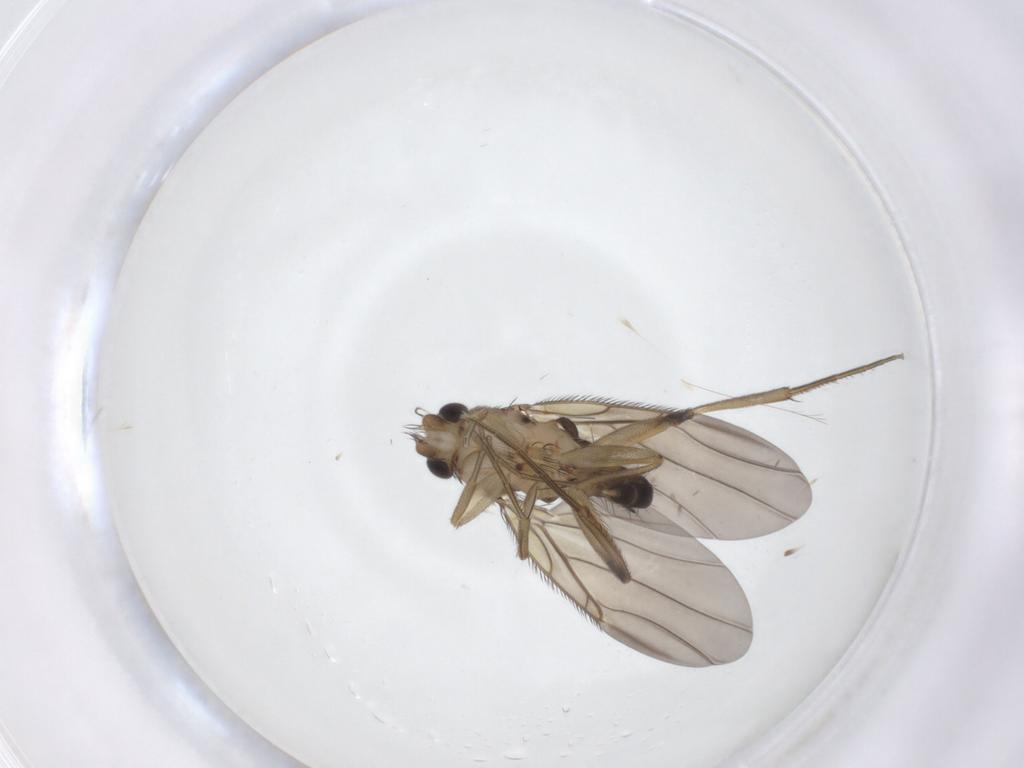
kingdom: Animalia
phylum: Arthropoda
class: Insecta
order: Diptera
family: Phoridae
